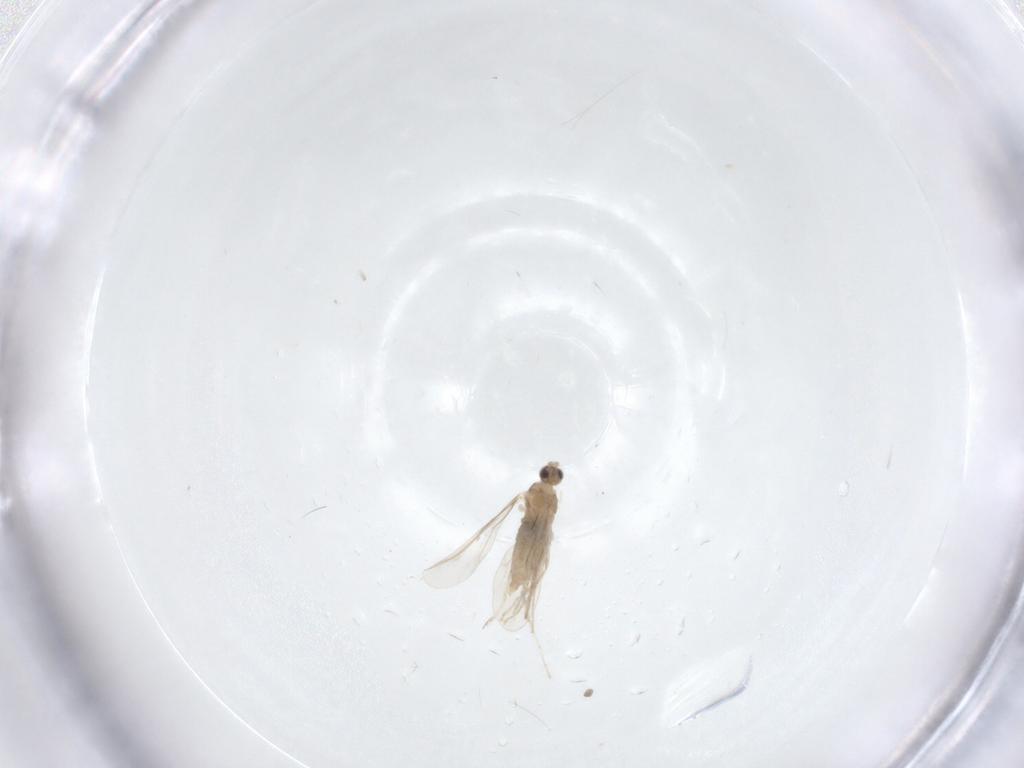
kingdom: Animalia
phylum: Arthropoda
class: Insecta
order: Diptera
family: Cecidomyiidae
